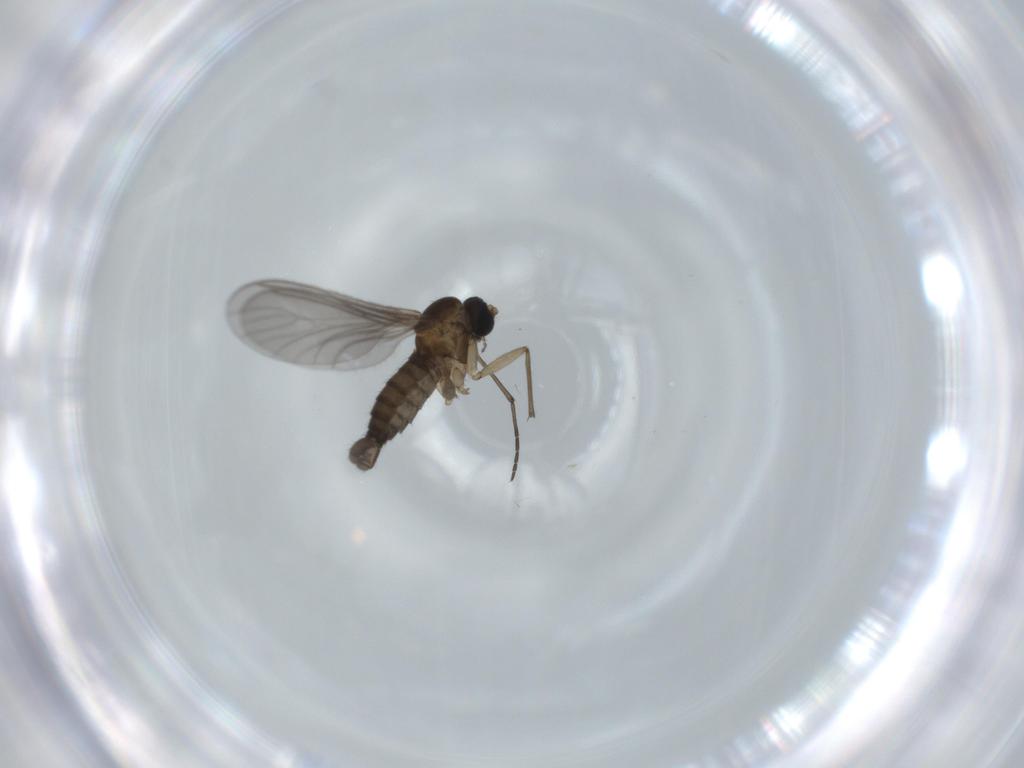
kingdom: Animalia
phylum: Arthropoda
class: Insecta
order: Diptera
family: Sciaridae
